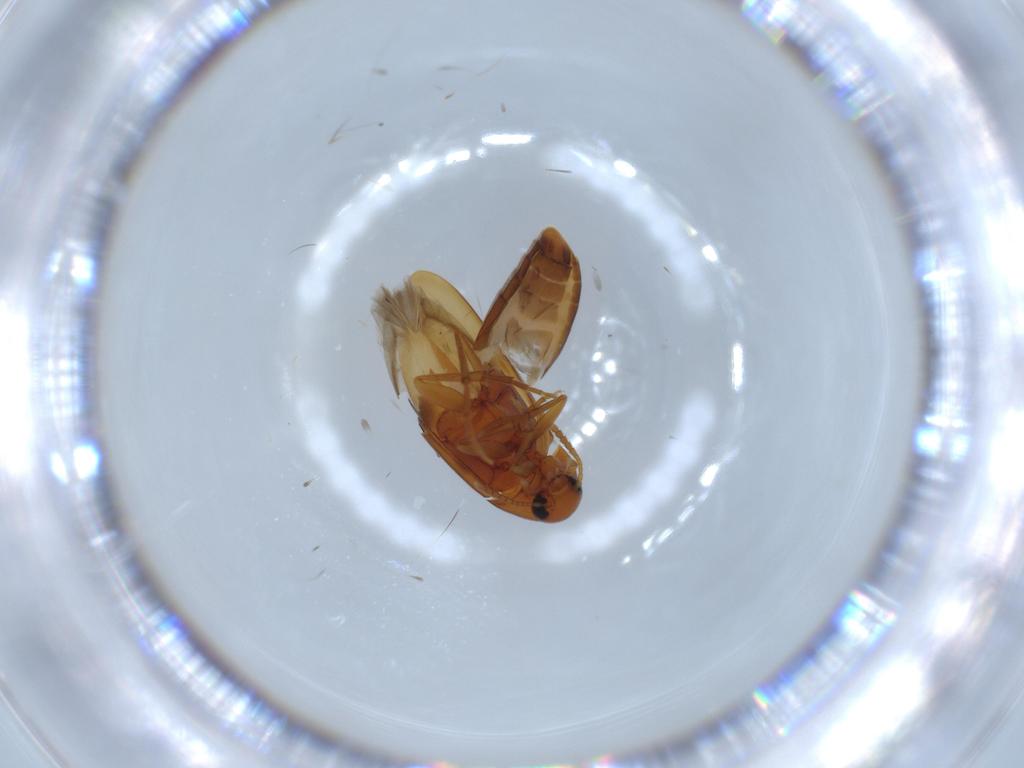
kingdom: Animalia
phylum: Arthropoda
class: Insecta
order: Coleoptera
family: Scraptiidae
